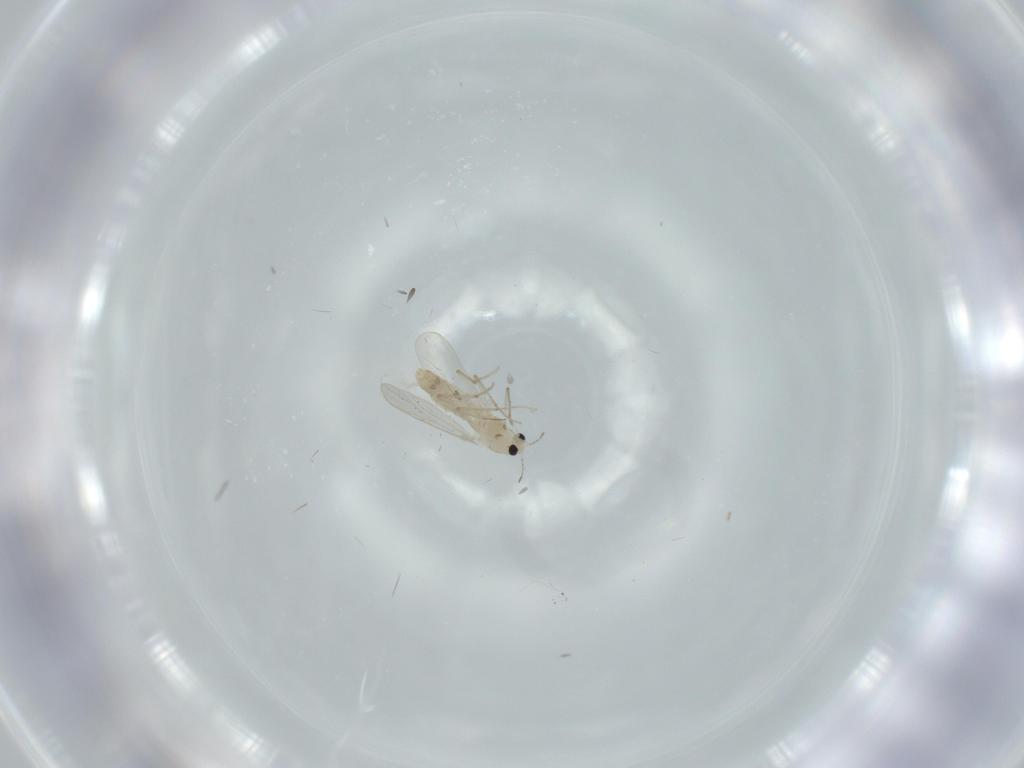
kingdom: Animalia
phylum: Arthropoda
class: Insecta
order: Diptera
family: Chironomidae
